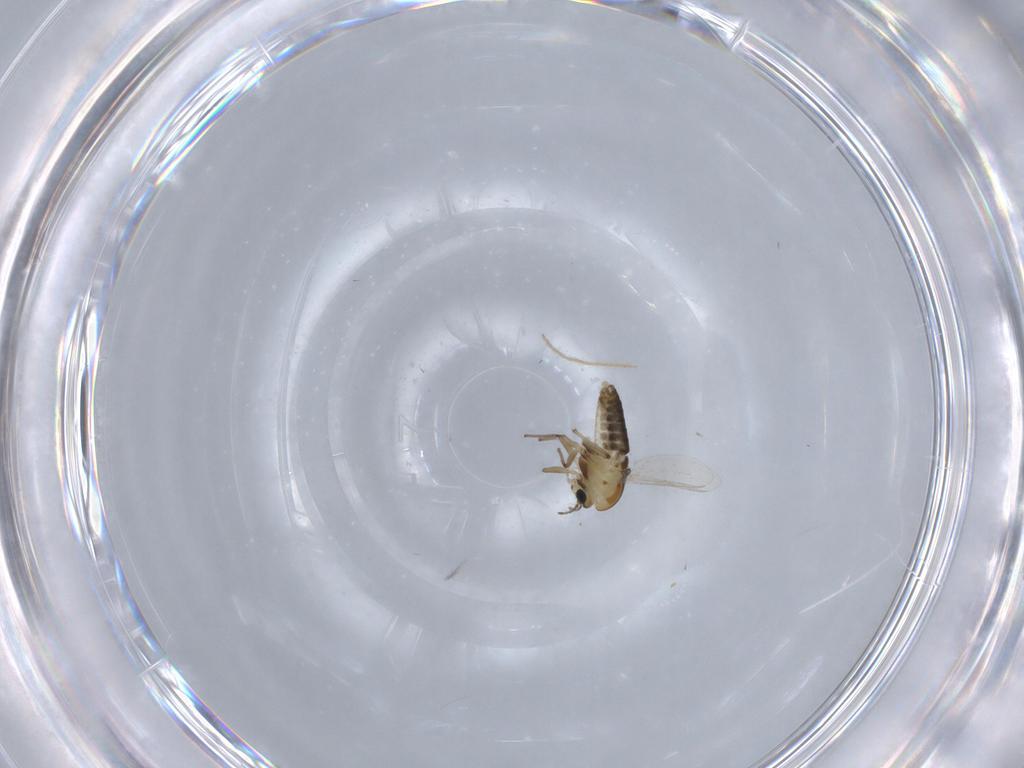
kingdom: Animalia
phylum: Arthropoda
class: Insecta
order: Diptera
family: Chironomidae
